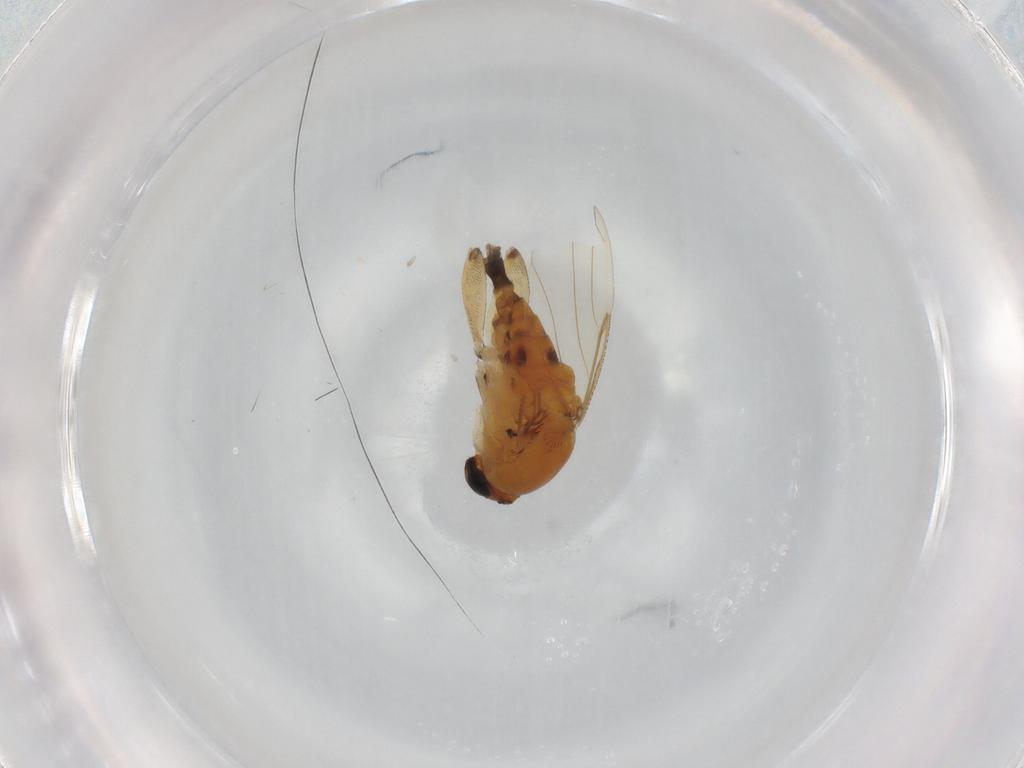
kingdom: Animalia
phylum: Arthropoda
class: Insecta
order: Diptera
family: Phoridae
